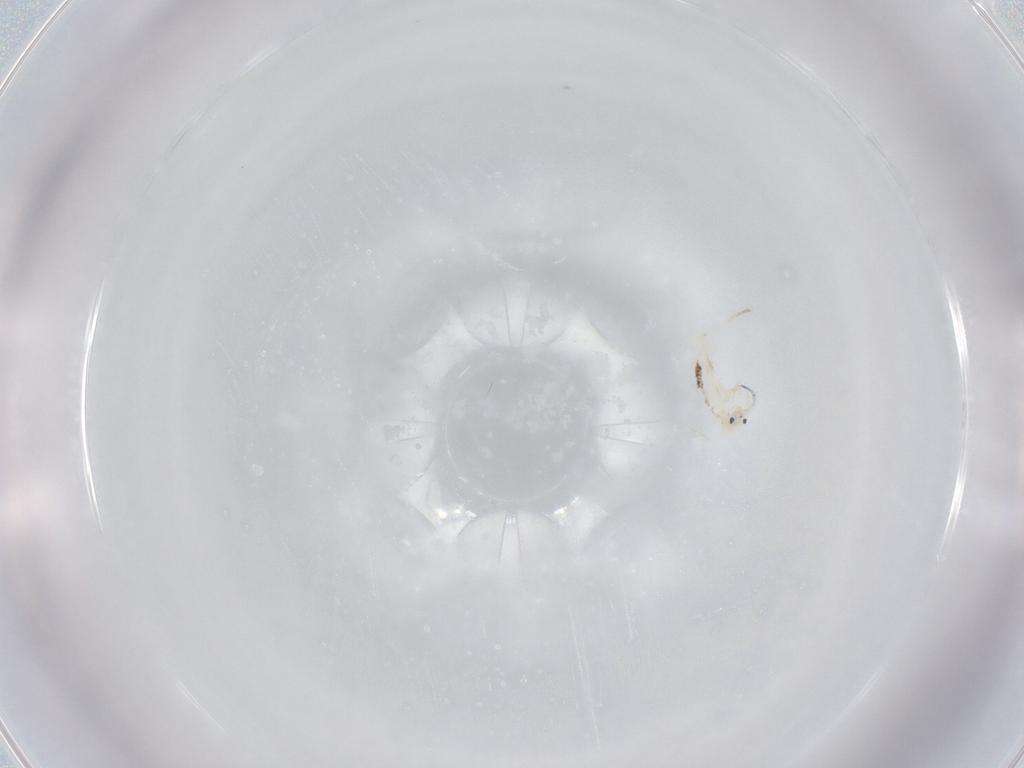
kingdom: Animalia
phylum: Arthropoda
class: Collembola
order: Entomobryomorpha
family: Entomobryidae
